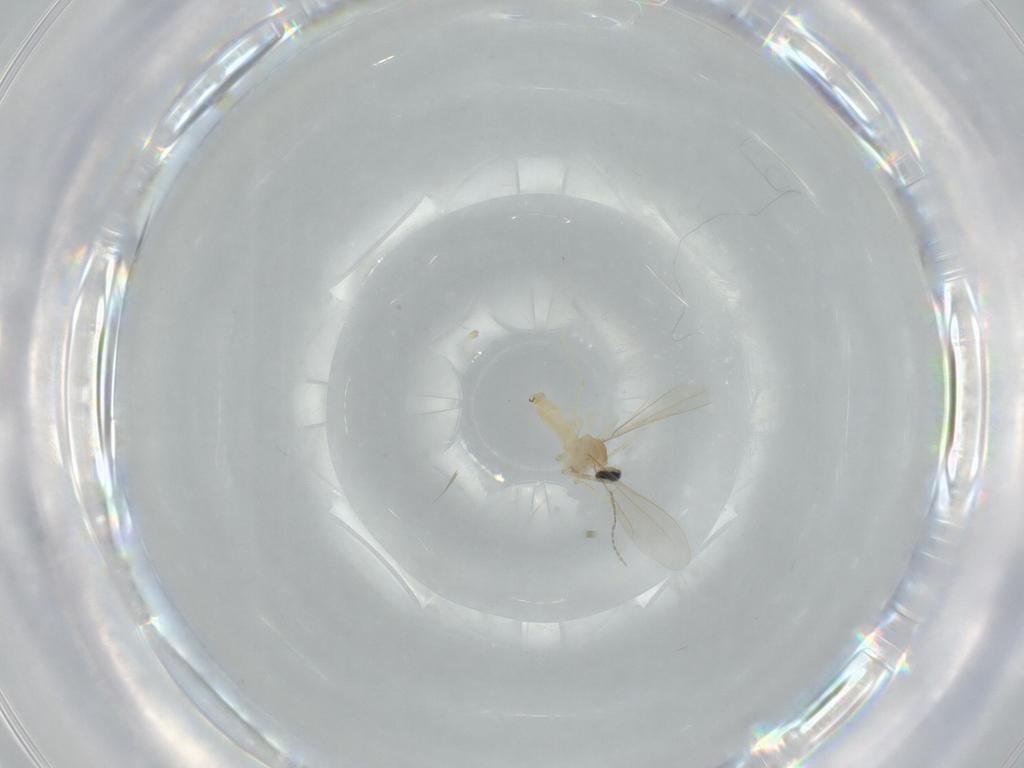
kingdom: Animalia
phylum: Arthropoda
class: Insecta
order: Diptera
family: Cecidomyiidae
